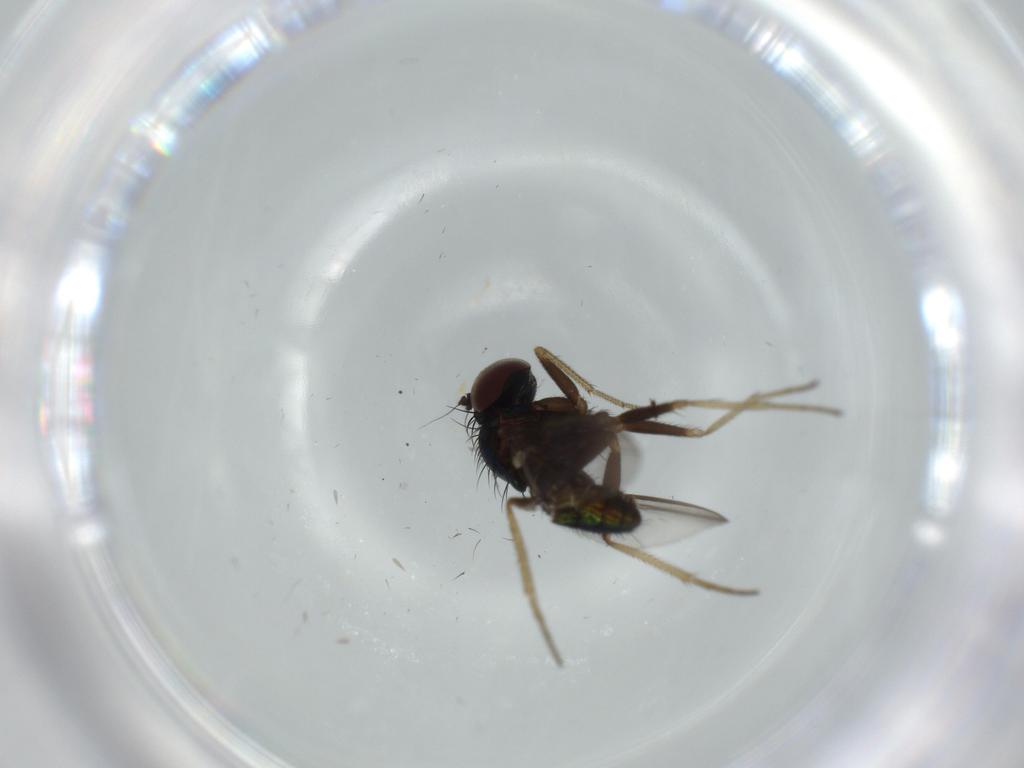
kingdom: Animalia
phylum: Arthropoda
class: Insecta
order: Diptera
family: Dolichopodidae
